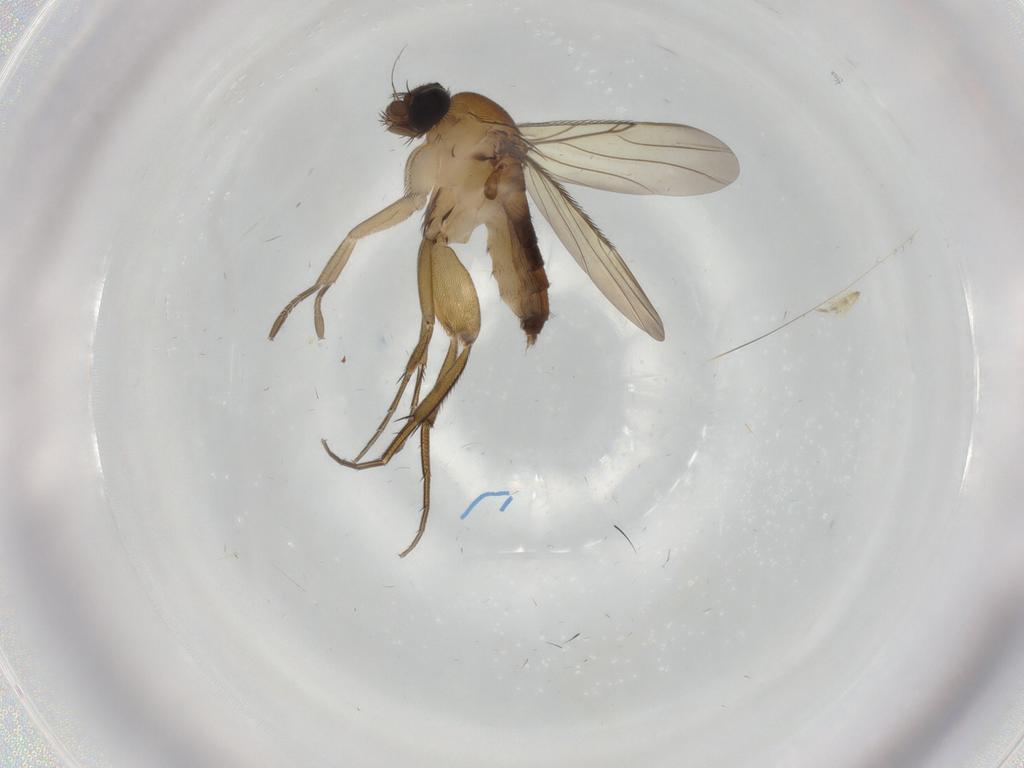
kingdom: Animalia
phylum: Arthropoda
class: Insecta
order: Diptera
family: Phoridae
